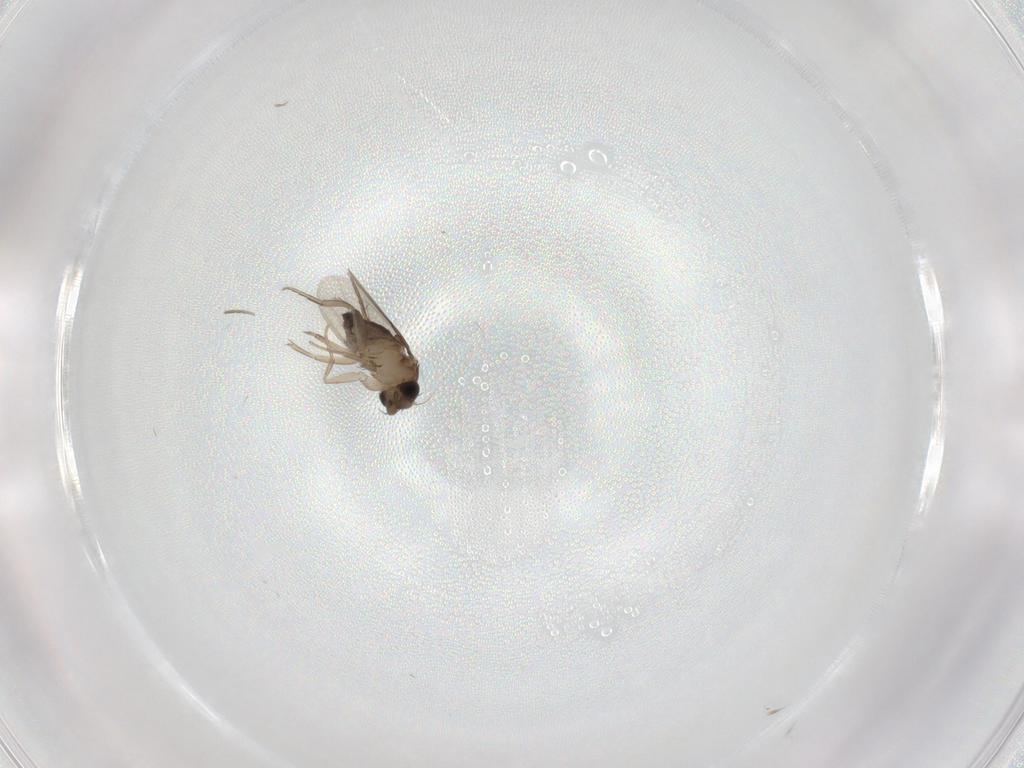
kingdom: Animalia
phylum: Arthropoda
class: Insecta
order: Diptera
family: Phoridae
